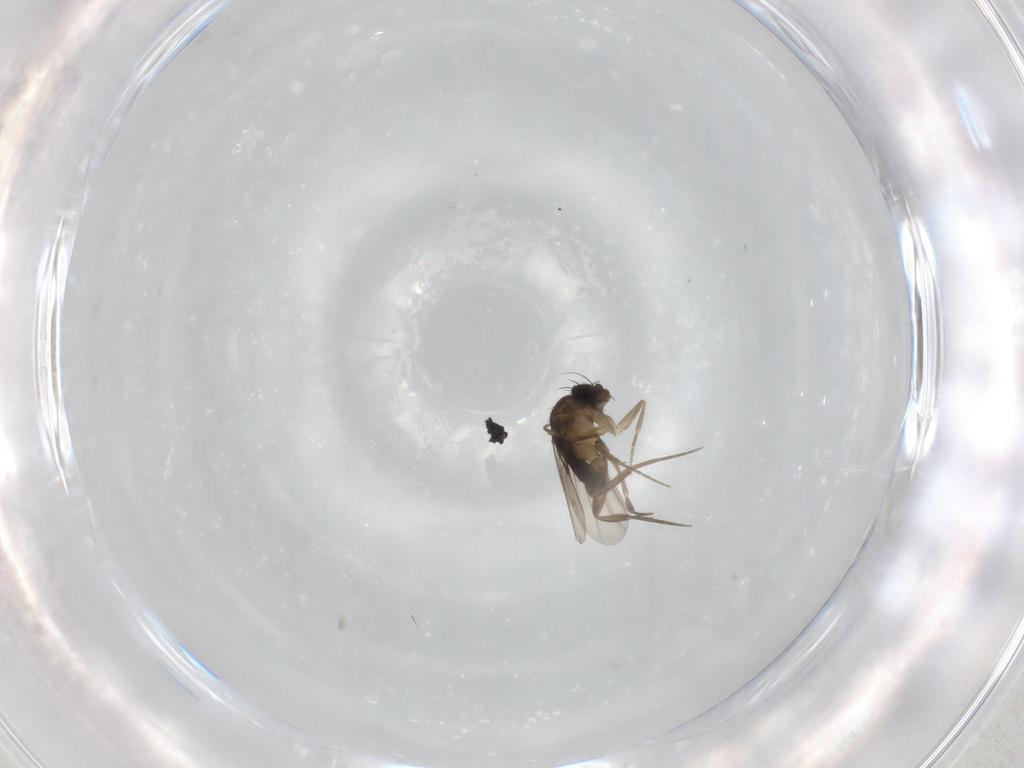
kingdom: Animalia
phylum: Arthropoda
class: Insecta
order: Diptera
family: Phoridae
